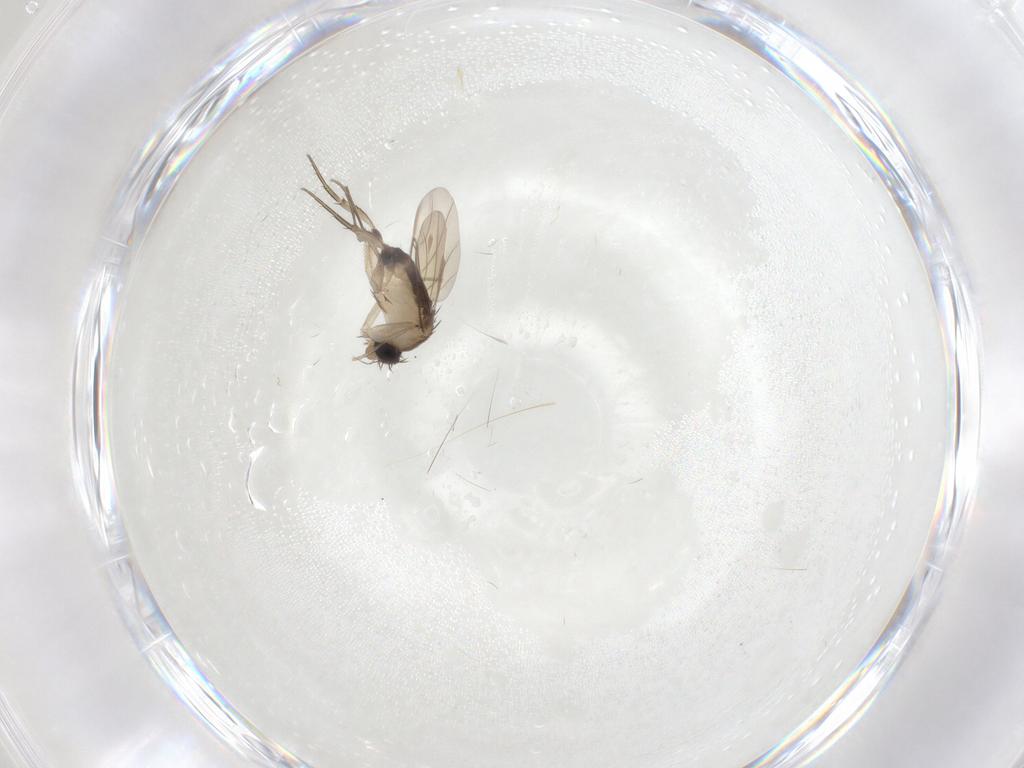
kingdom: Animalia
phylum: Arthropoda
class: Insecta
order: Diptera
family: Phoridae
